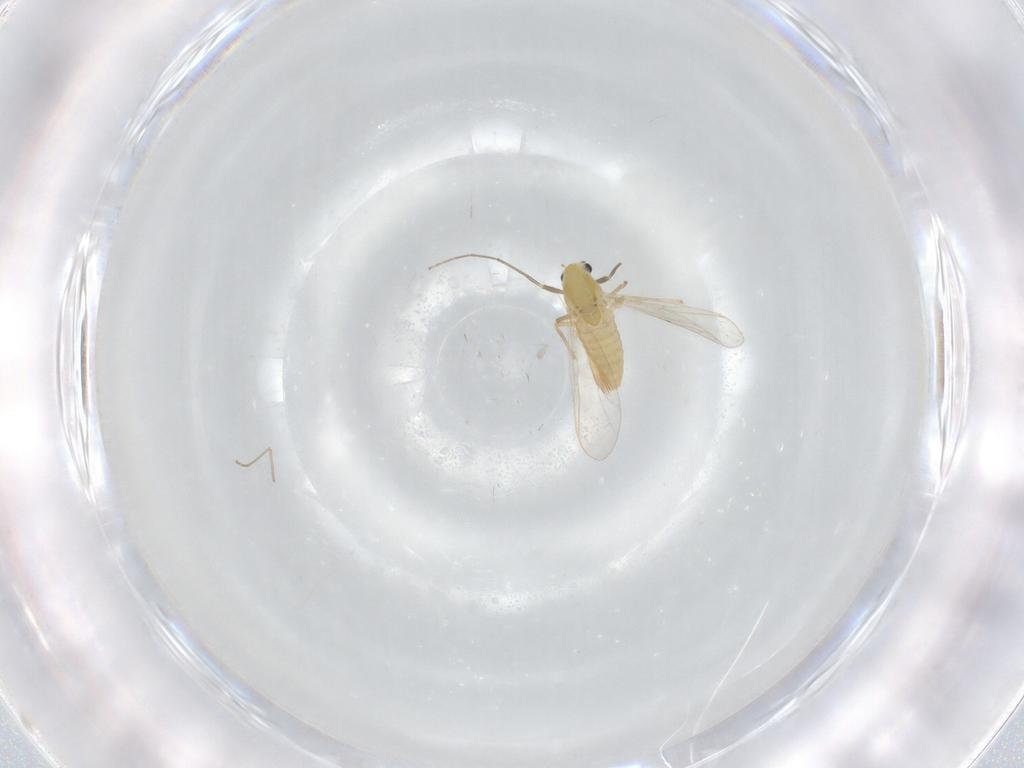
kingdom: Animalia
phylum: Arthropoda
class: Insecta
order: Diptera
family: Chironomidae
